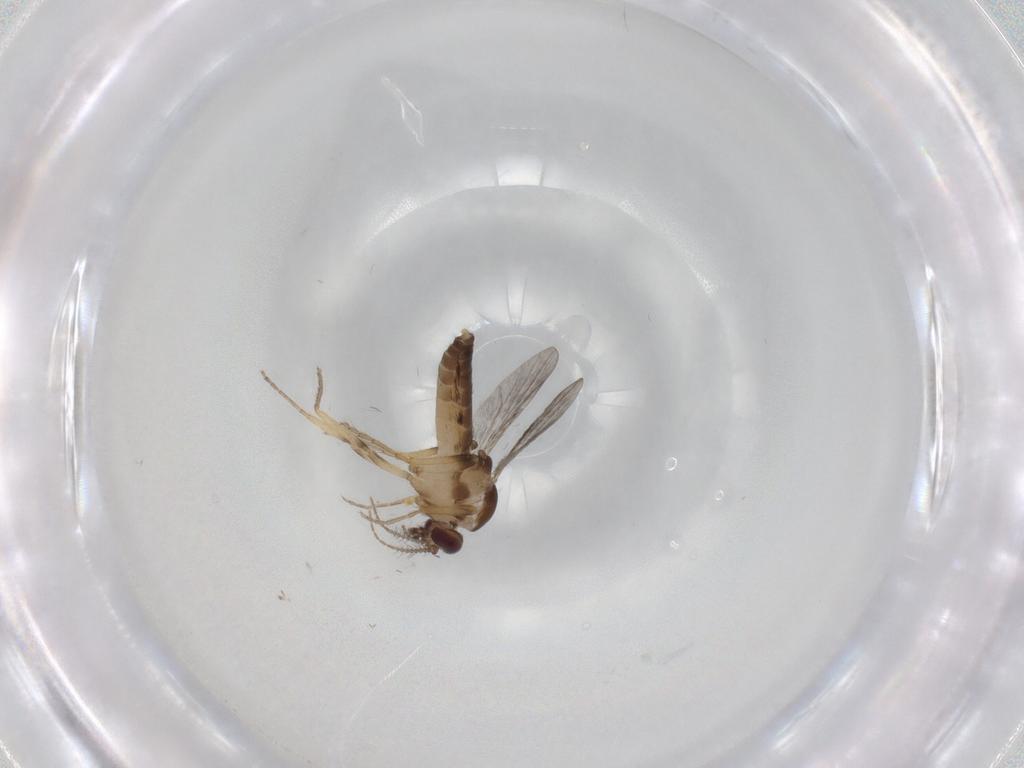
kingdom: Animalia
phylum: Arthropoda
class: Insecta
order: Diptera
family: Ceratopogonidae
